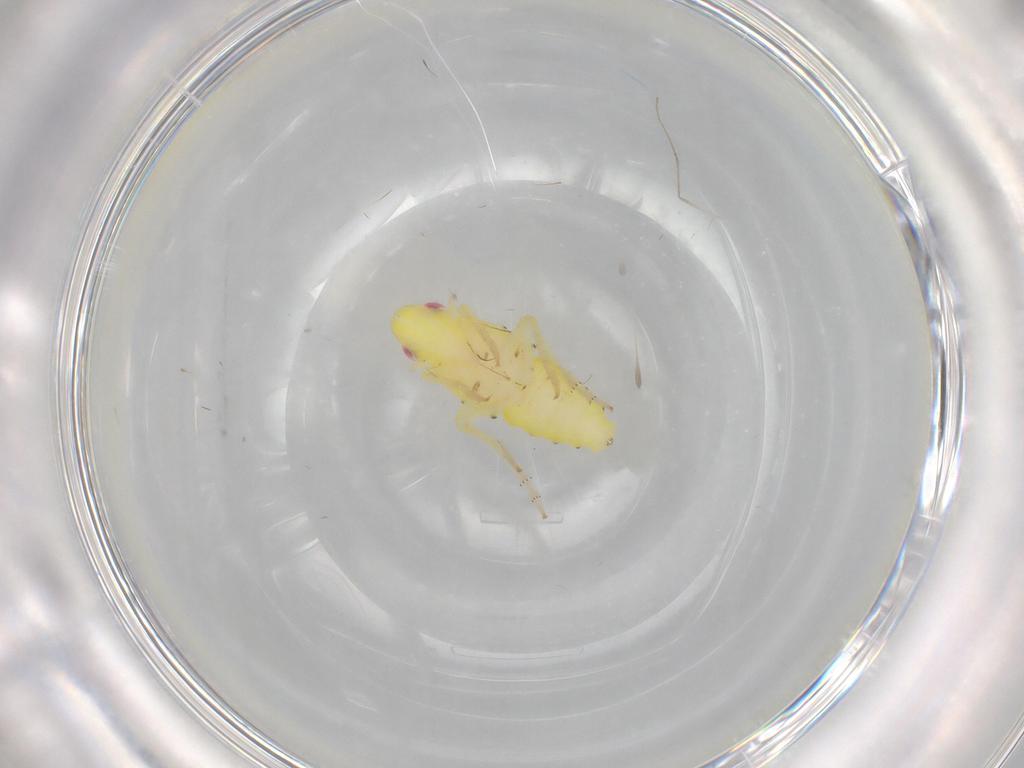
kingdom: Animalia
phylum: Arthropoda
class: Insecta
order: Hemiptera
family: Tropiduchidae
